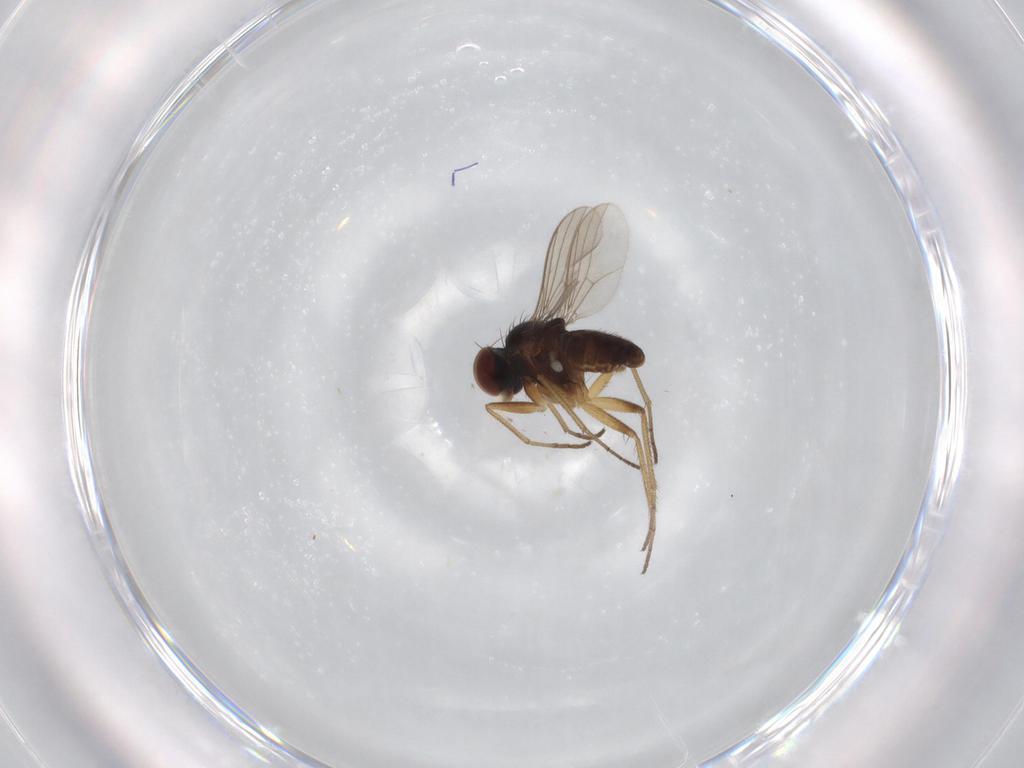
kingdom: Animalia
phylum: Arthropoda
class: Insecta
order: Diptera
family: Dolichopodidae
